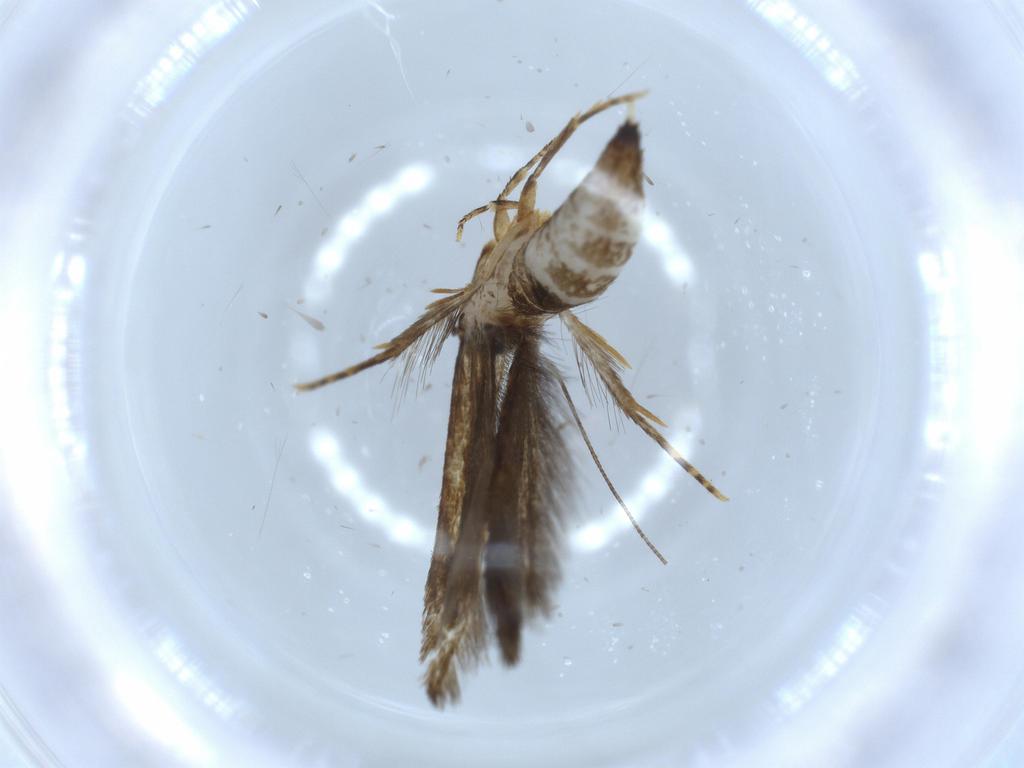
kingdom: Animalia
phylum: Arthropoda
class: Insecta
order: Lepidoptera
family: Tineidae
